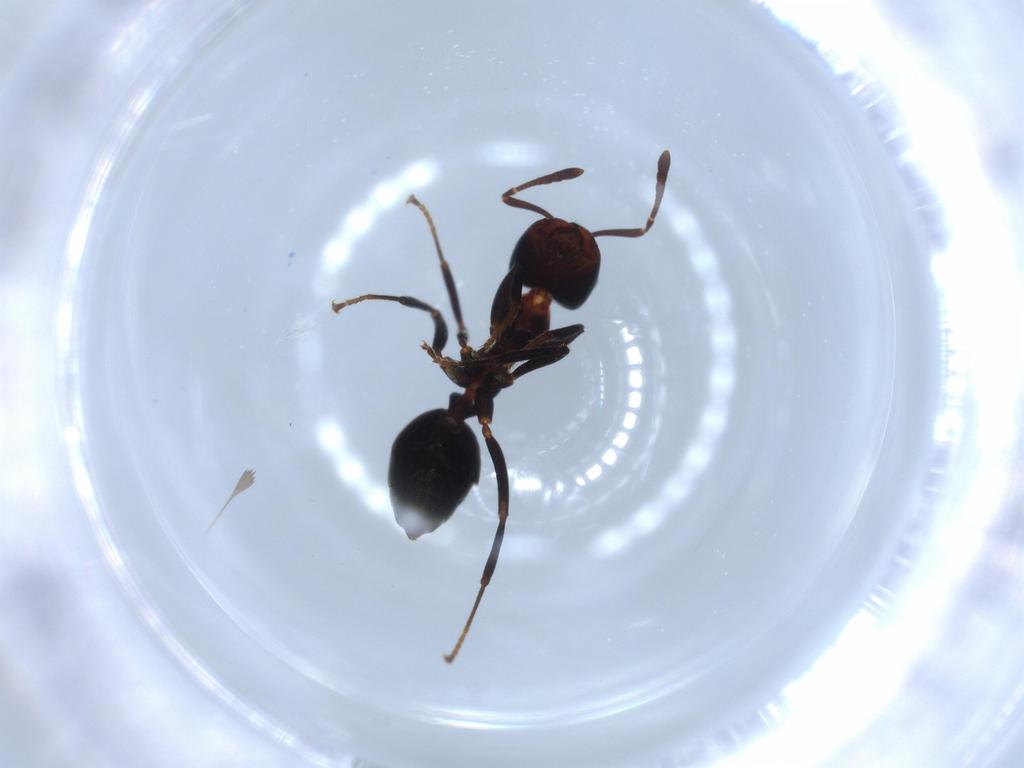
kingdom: Animalia
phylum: Arthropoda
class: Insecta
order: Hymenoptera
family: Formicidae
